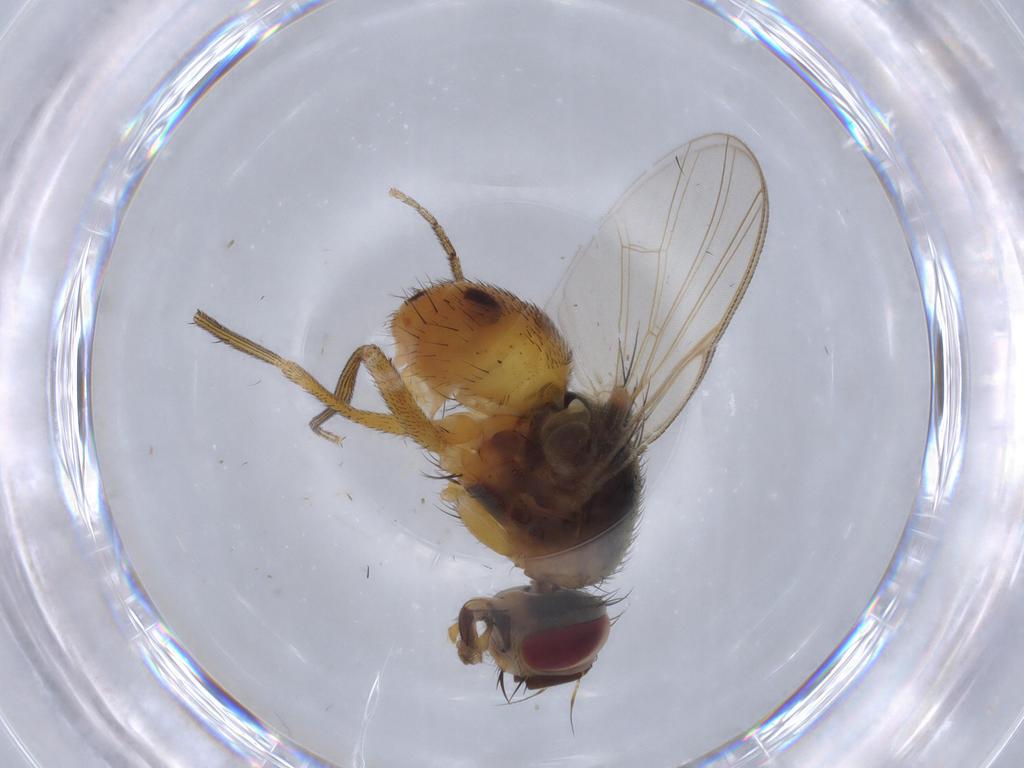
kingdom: Animalia
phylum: Arthropoda
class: Insecta
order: Diptera
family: Muscidae
